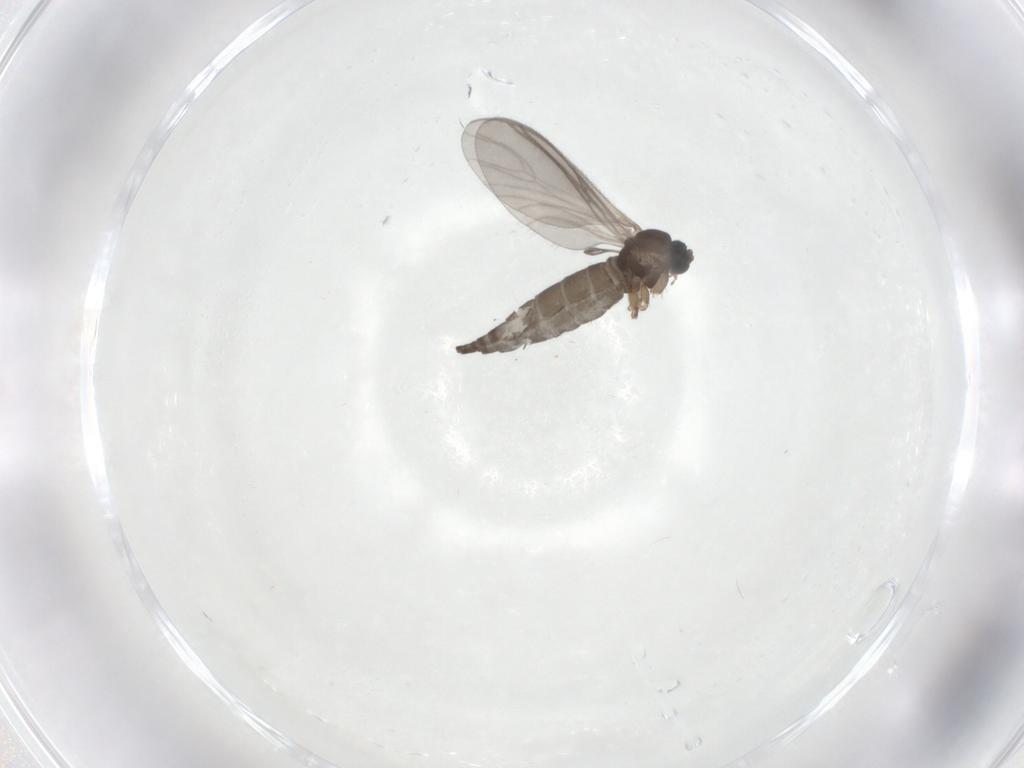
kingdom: Animalia
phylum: Arthropoda
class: Insecta
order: Diptera
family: Sciaridae
